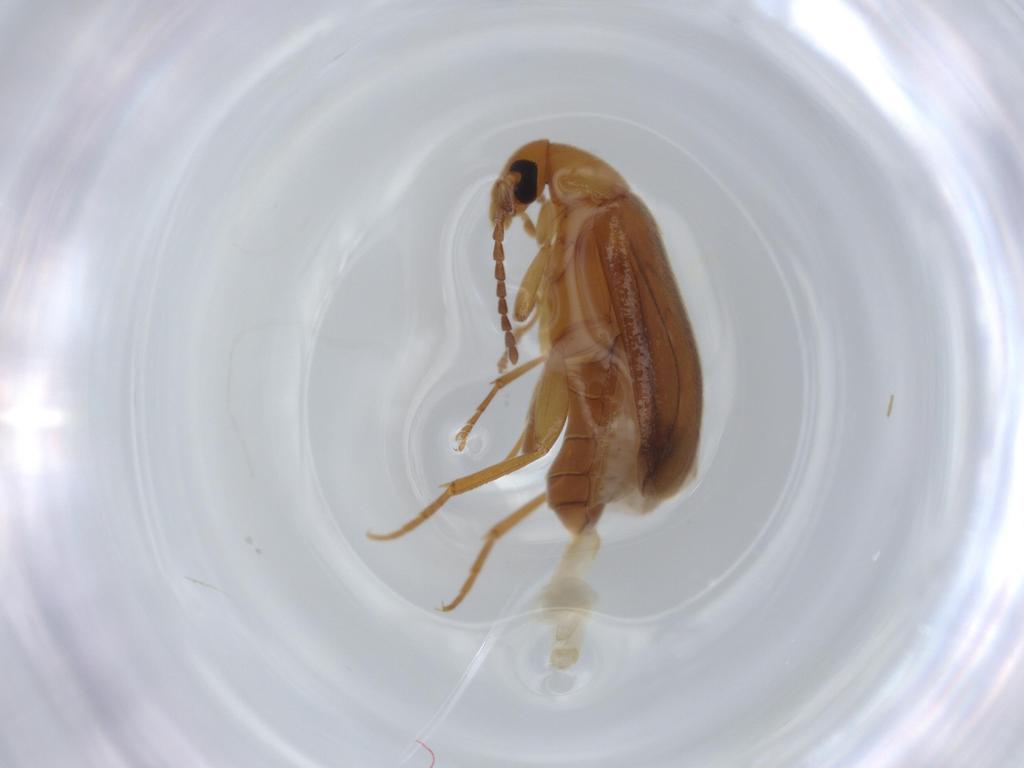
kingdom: Animalia
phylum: Arthropoda
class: Insecta
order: Coleoptera
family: Scraptiidae
